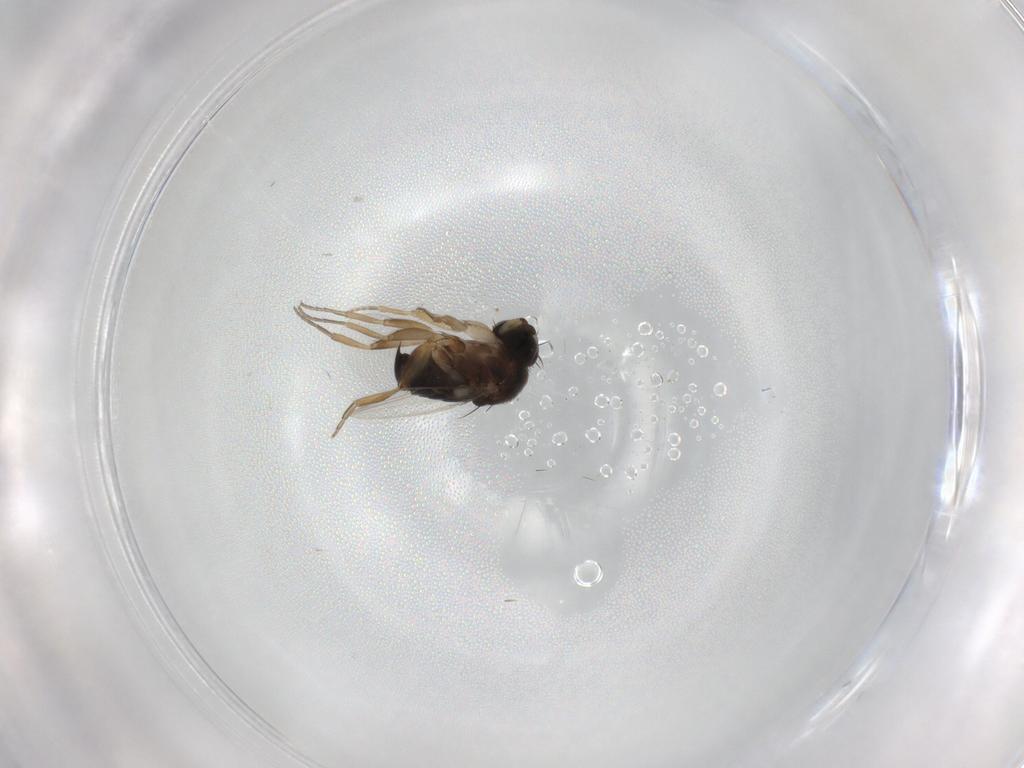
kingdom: Animalia
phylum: Arthropoda
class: Insecta
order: Diptera
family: Phoridae
